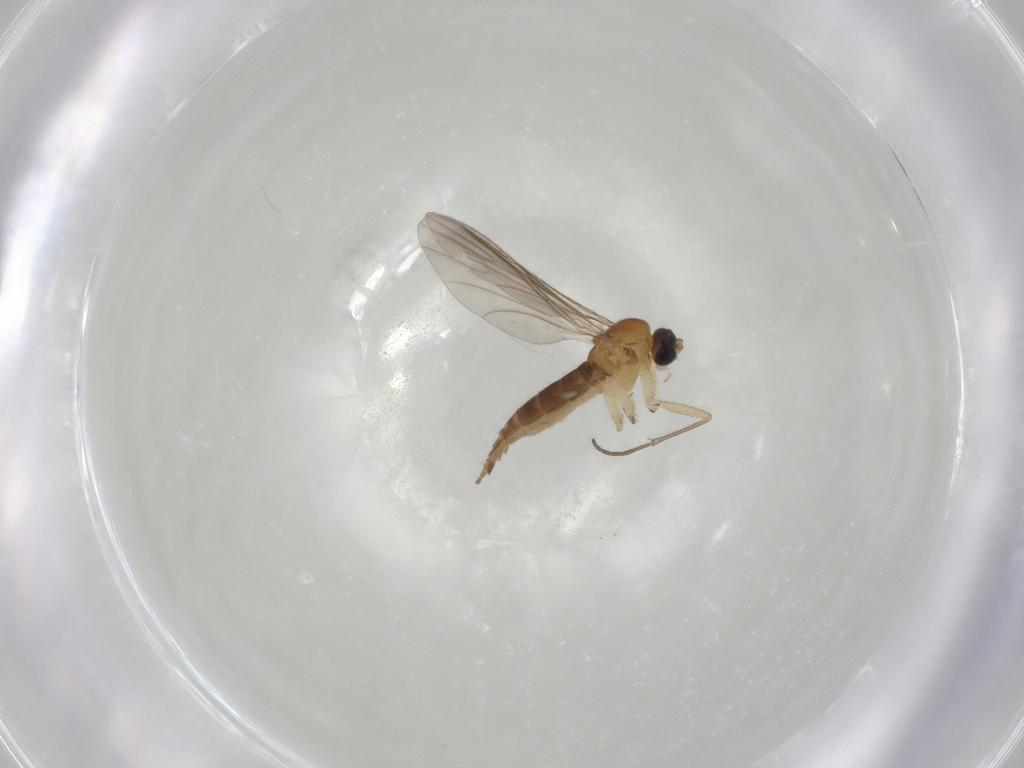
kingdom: Animalia
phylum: Arthropoda
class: Insecta
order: Diptera
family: Sciaridae
